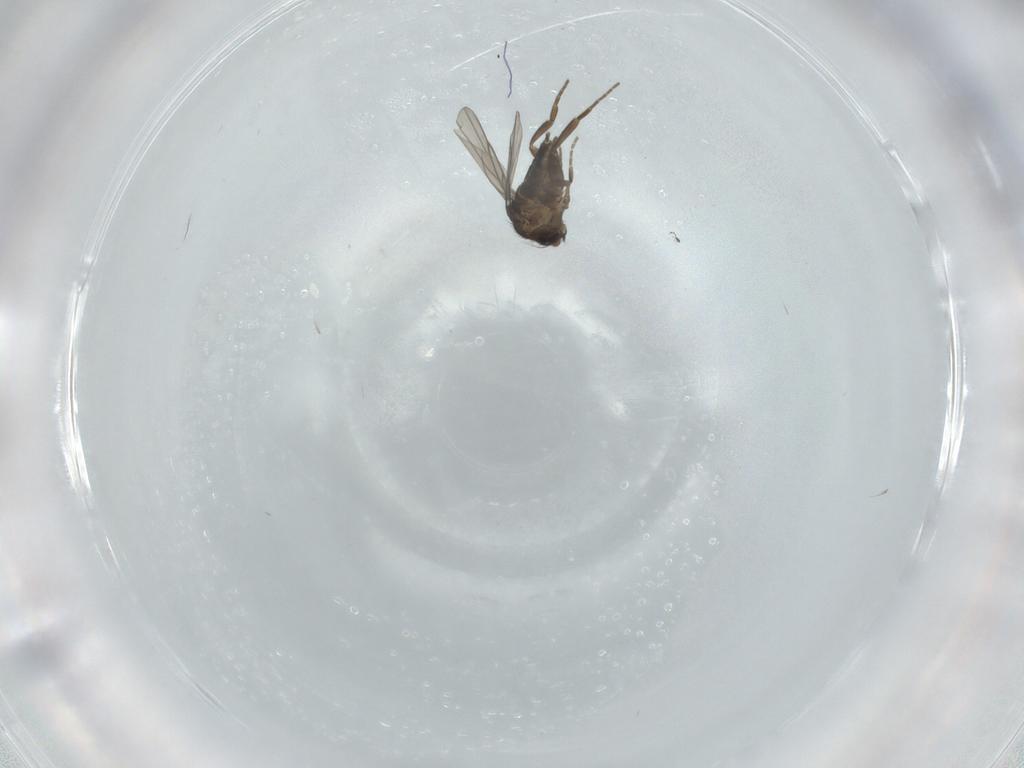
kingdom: Animalia
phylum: Arthropoda
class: Insecta
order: Diptera
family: Phoridae
